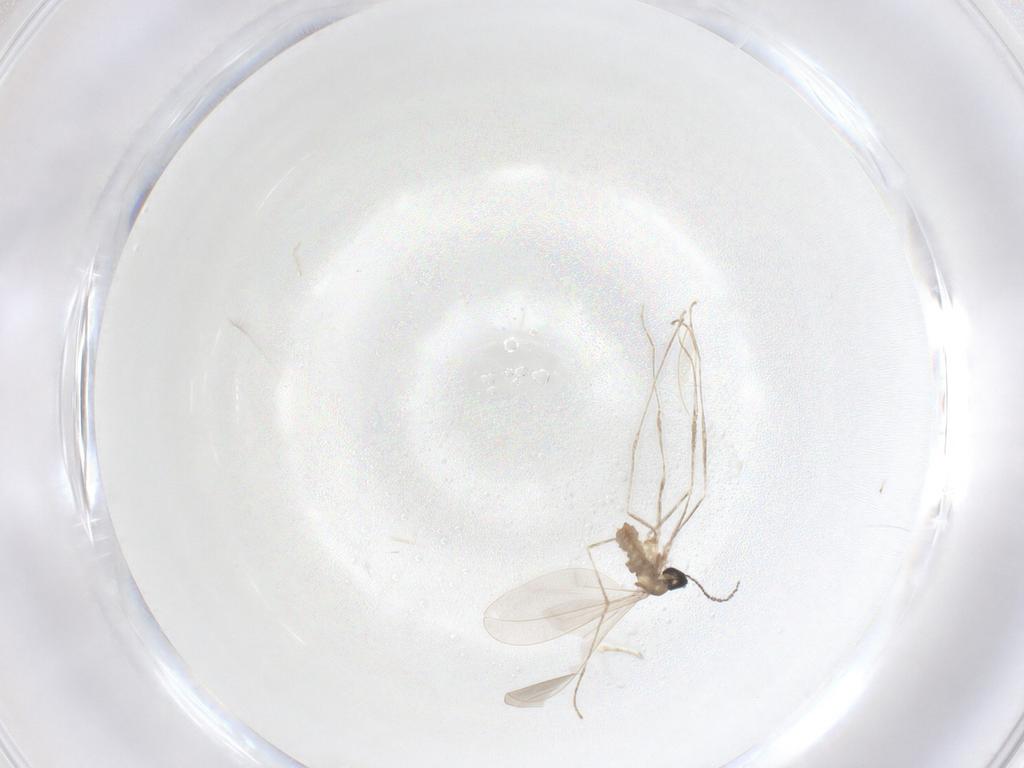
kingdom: Animalia
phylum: Arthropoda
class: Insecta
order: Diptera
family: Cecidomyiidae
